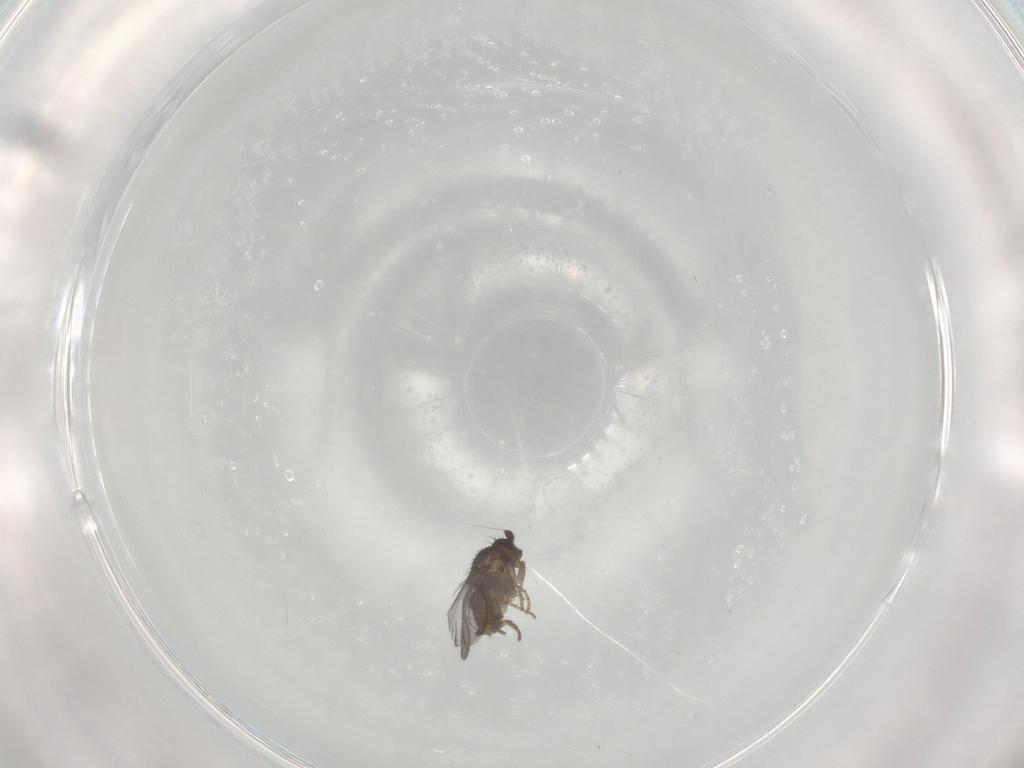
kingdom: Animalia
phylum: Arthropoda
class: Insecta
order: Diptera
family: Sphaeroceridae
